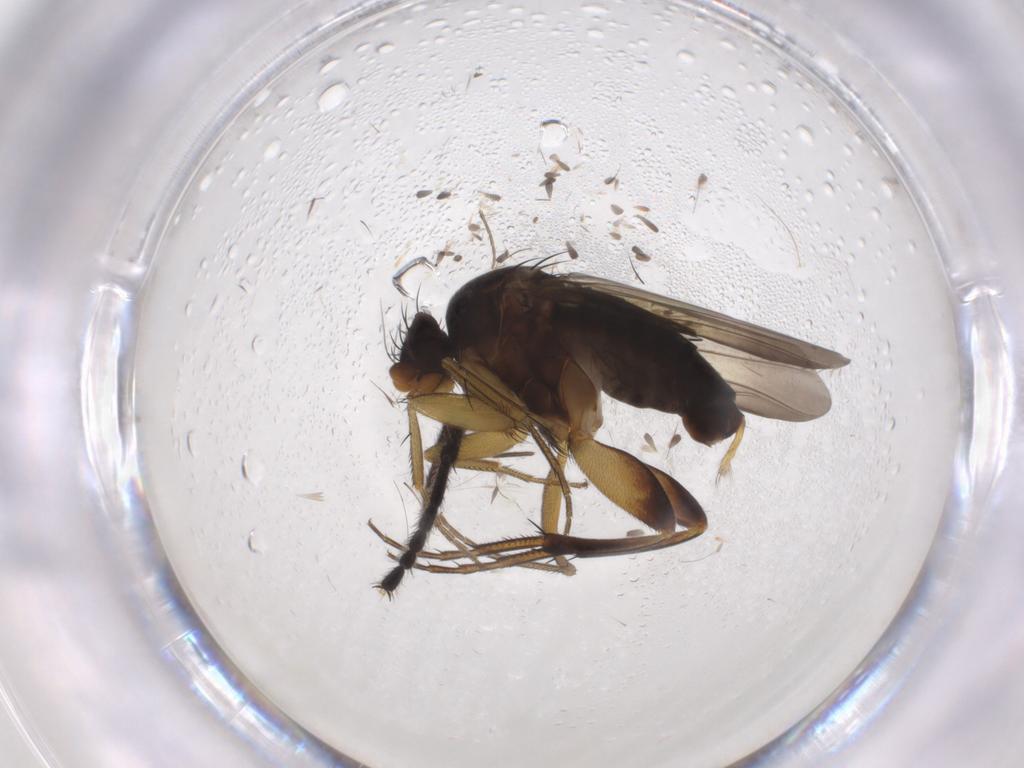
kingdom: Animalia
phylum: Arthropoda
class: Insecta
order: Diptera
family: Phoridae
